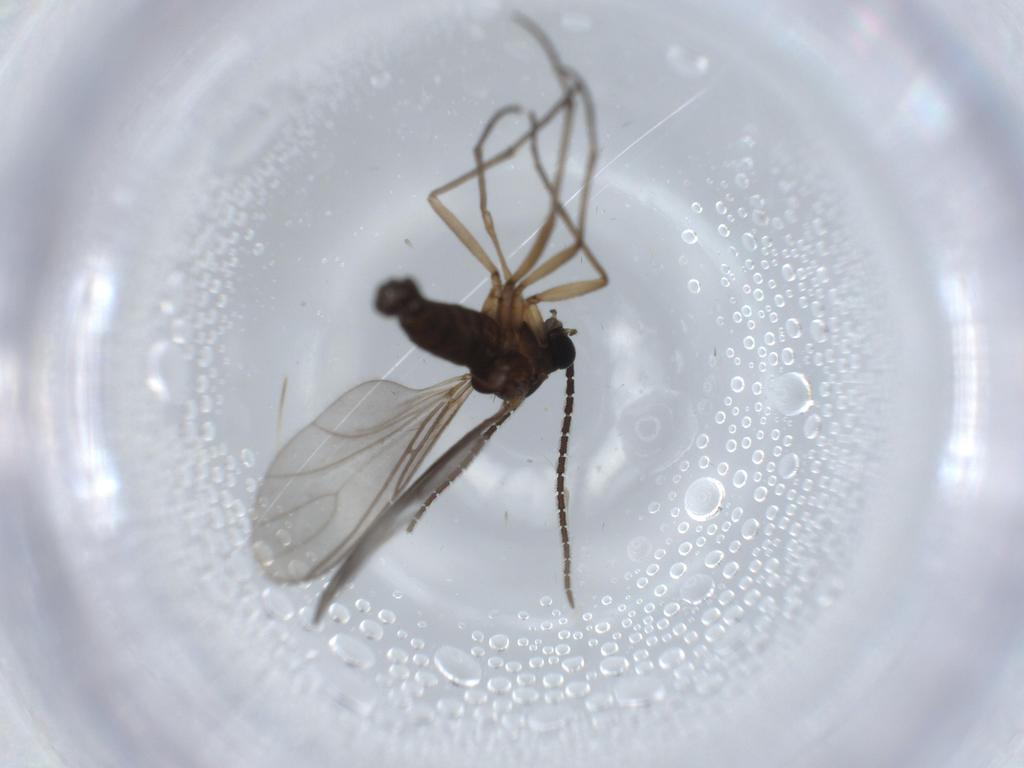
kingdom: Animalia
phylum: Arthropoda
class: Insecta
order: Diptera
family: Sciaridae
